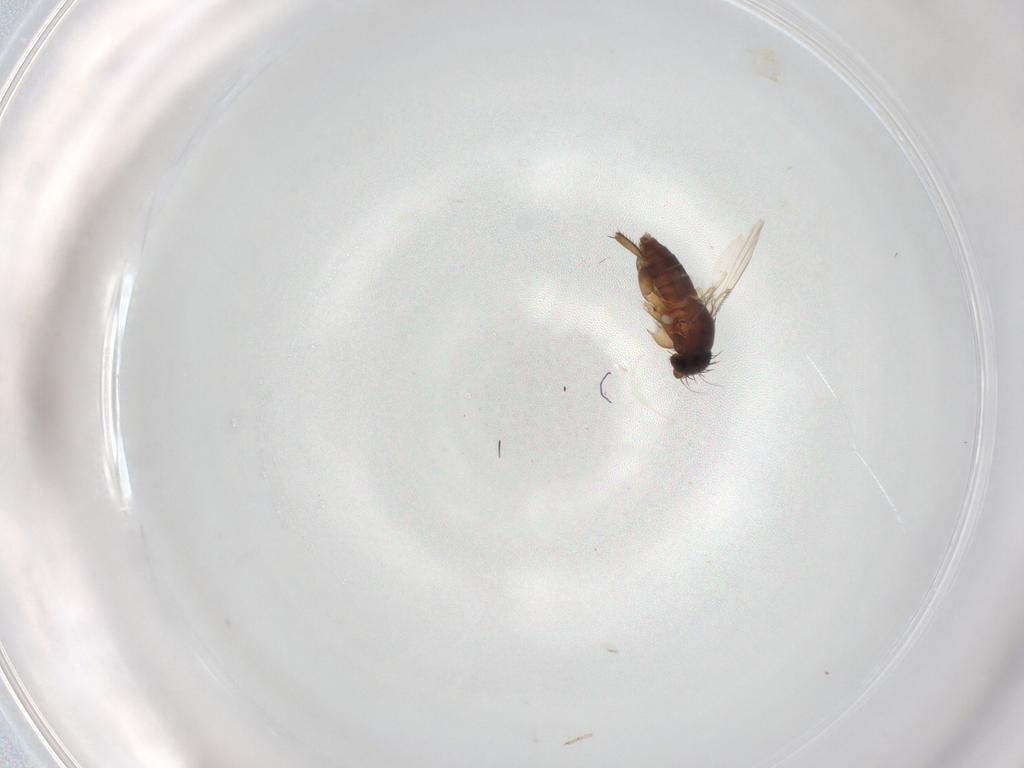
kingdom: Animalia
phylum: Arthropoda
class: Insecta
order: Diptera
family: Phoridae
